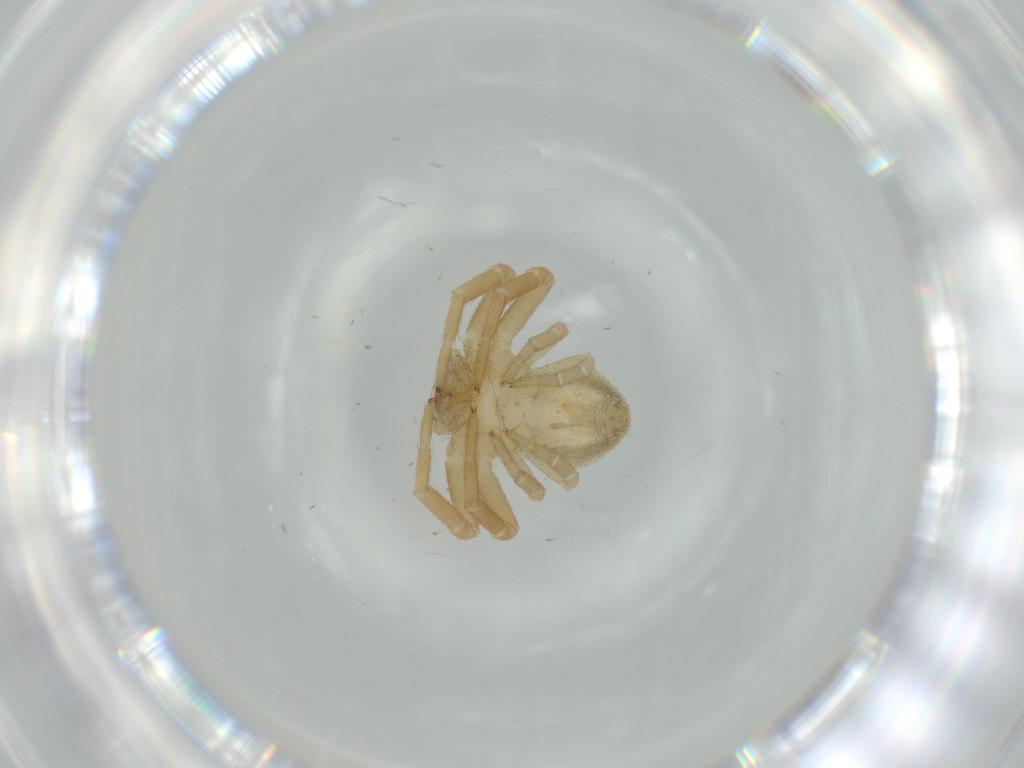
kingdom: Animalia
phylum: Arthropoda
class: Arachnida
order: Araneae
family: Thomisidae
